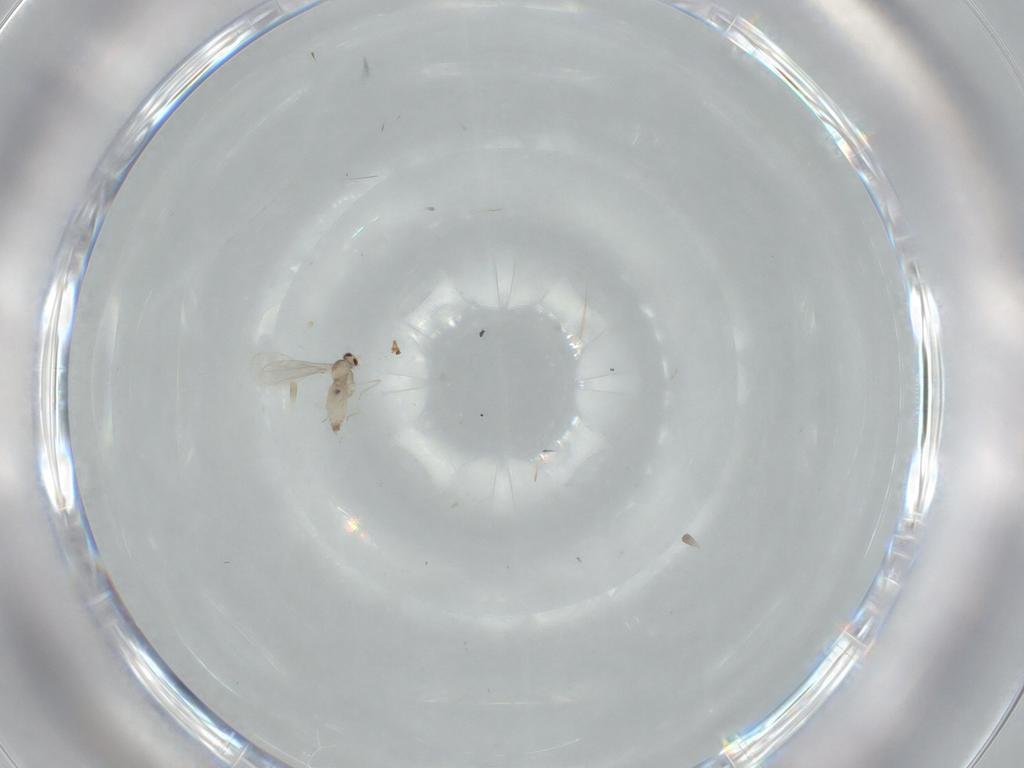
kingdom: Animalia
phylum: Arthropoda
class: Insecta
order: Diptera
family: Cecidomyiidae
